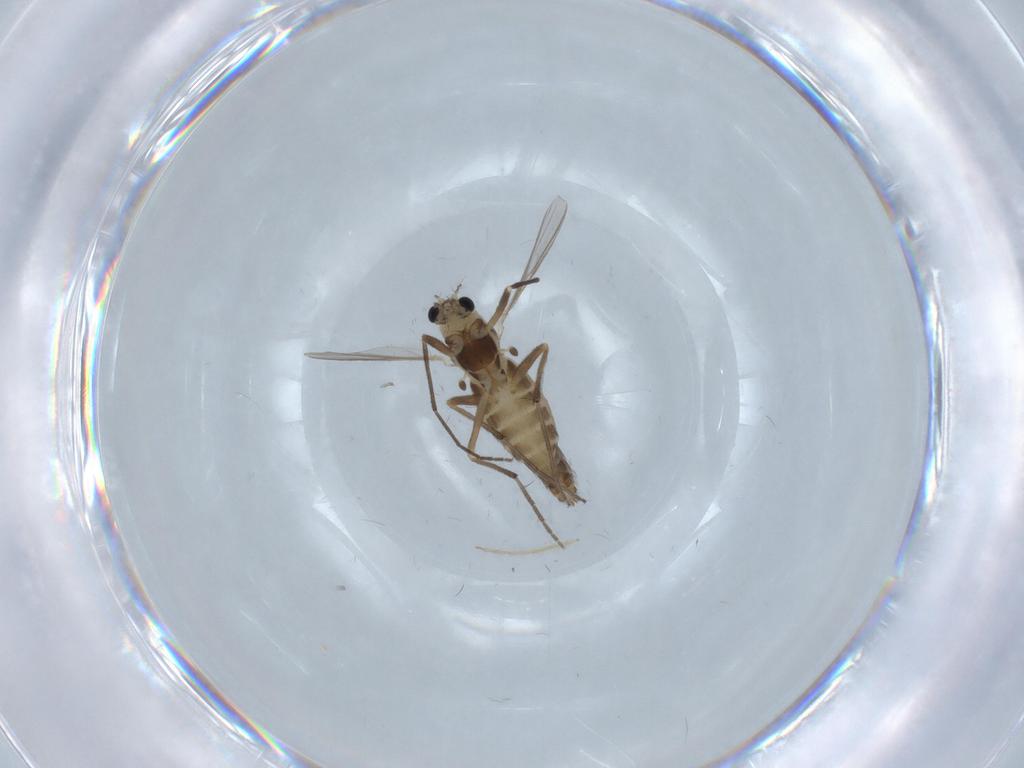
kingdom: Animalia
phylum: Arthropoda
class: Insecta
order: Diptera
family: Chironomidae
